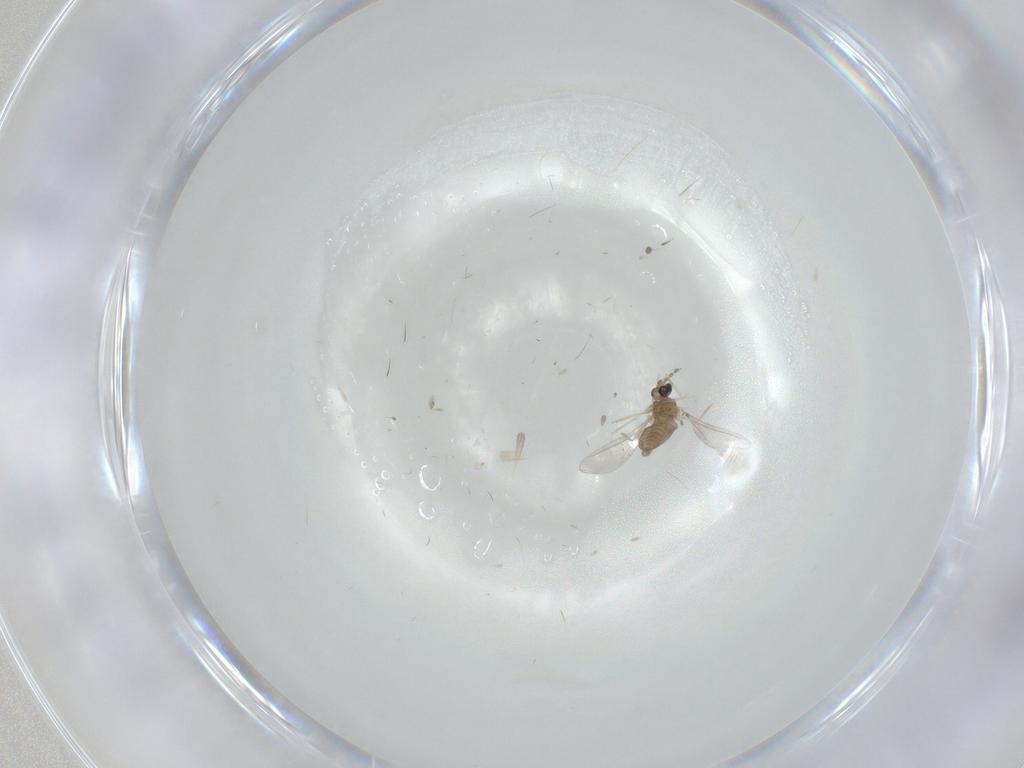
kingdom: Animalia
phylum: Arthropoda
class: Insecta
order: Diptera
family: Cecidomyiidae
